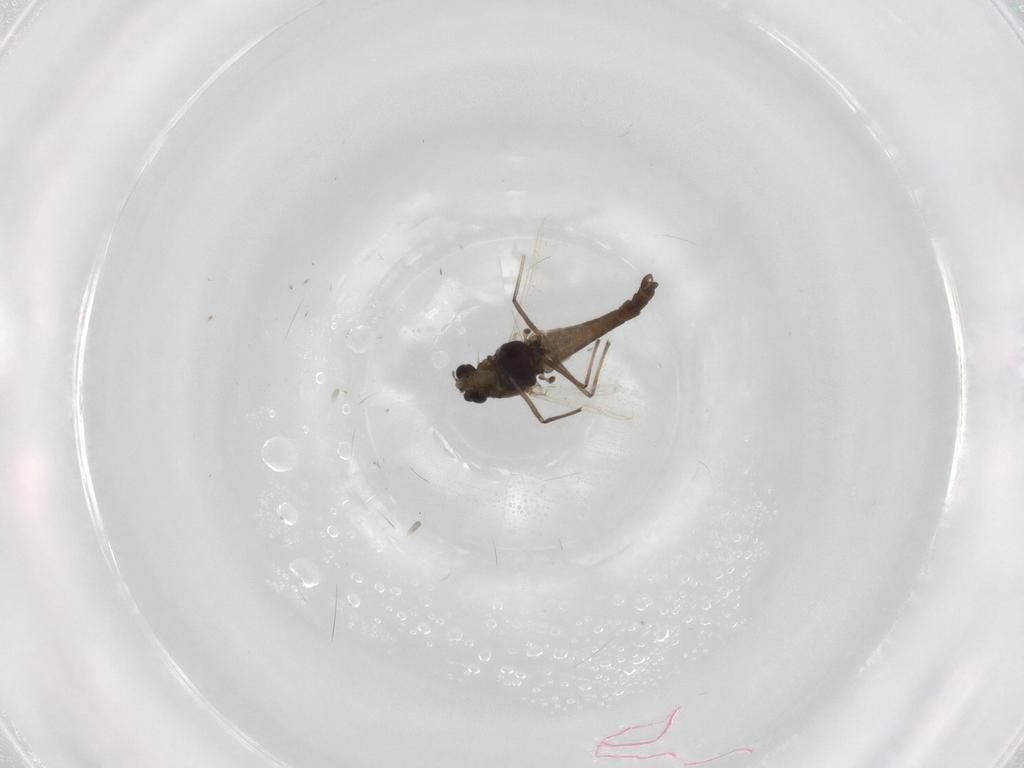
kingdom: Animalia
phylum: Arthropoda
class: Insecta
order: Diptera
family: Chironomidae
